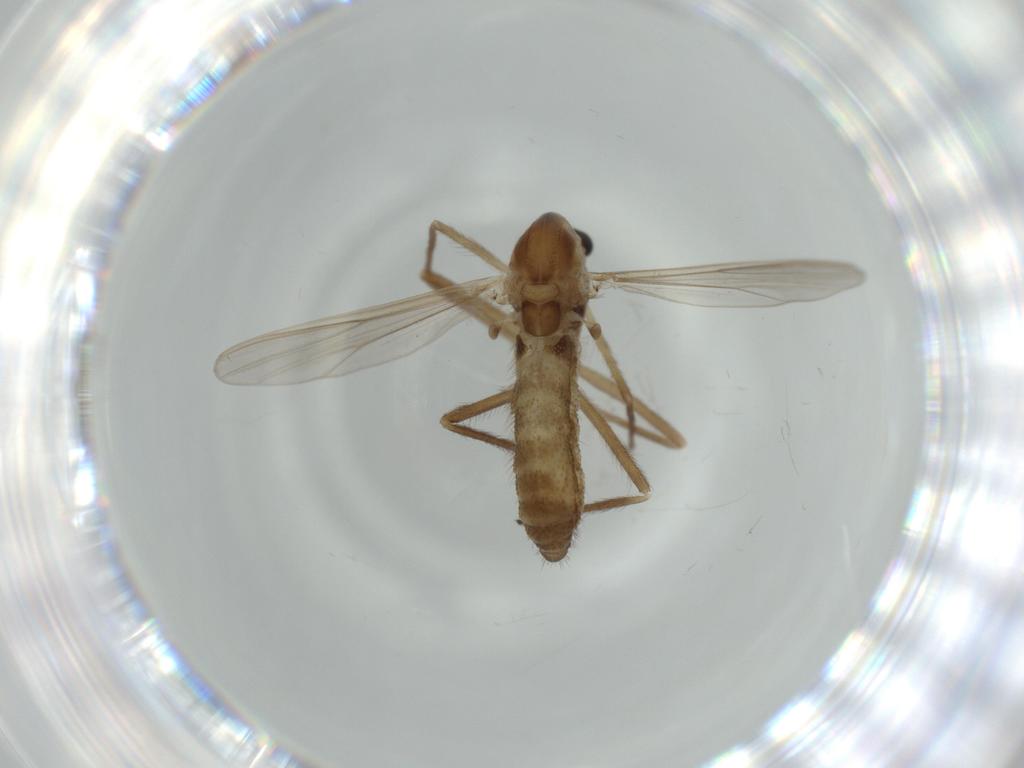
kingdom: Animalia
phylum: Arthropoda
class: Insecta
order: Diptera
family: Chironomidae
